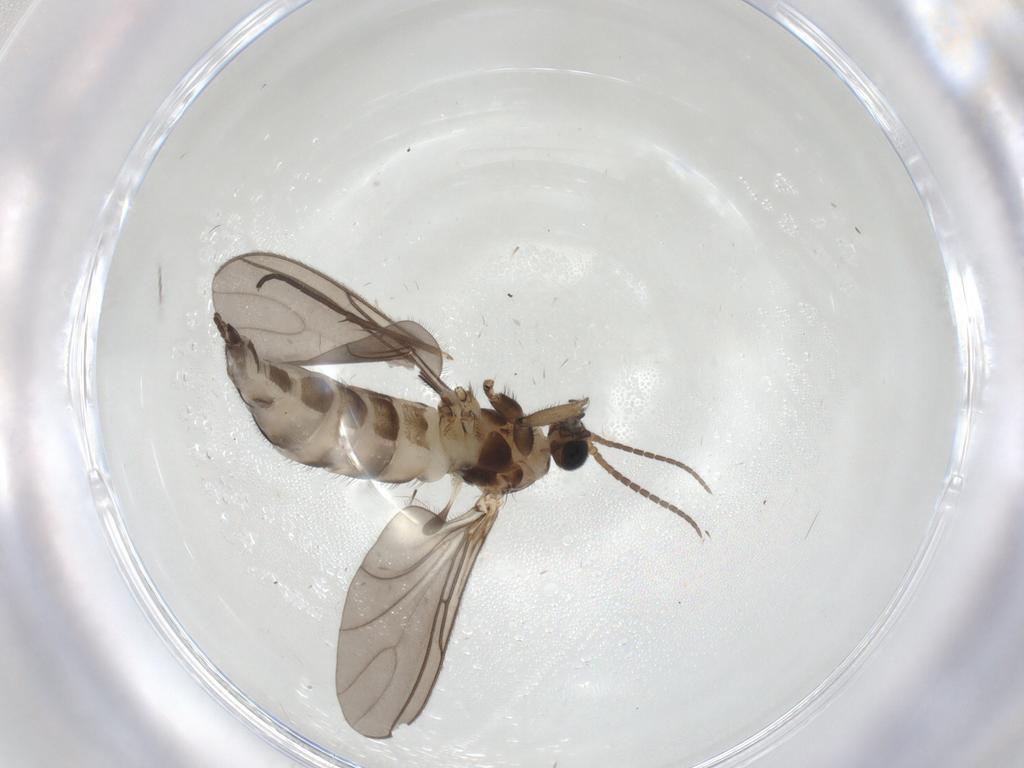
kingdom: Animalia
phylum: Arthropoda
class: Insecta
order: Diptera
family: Sciaridae
